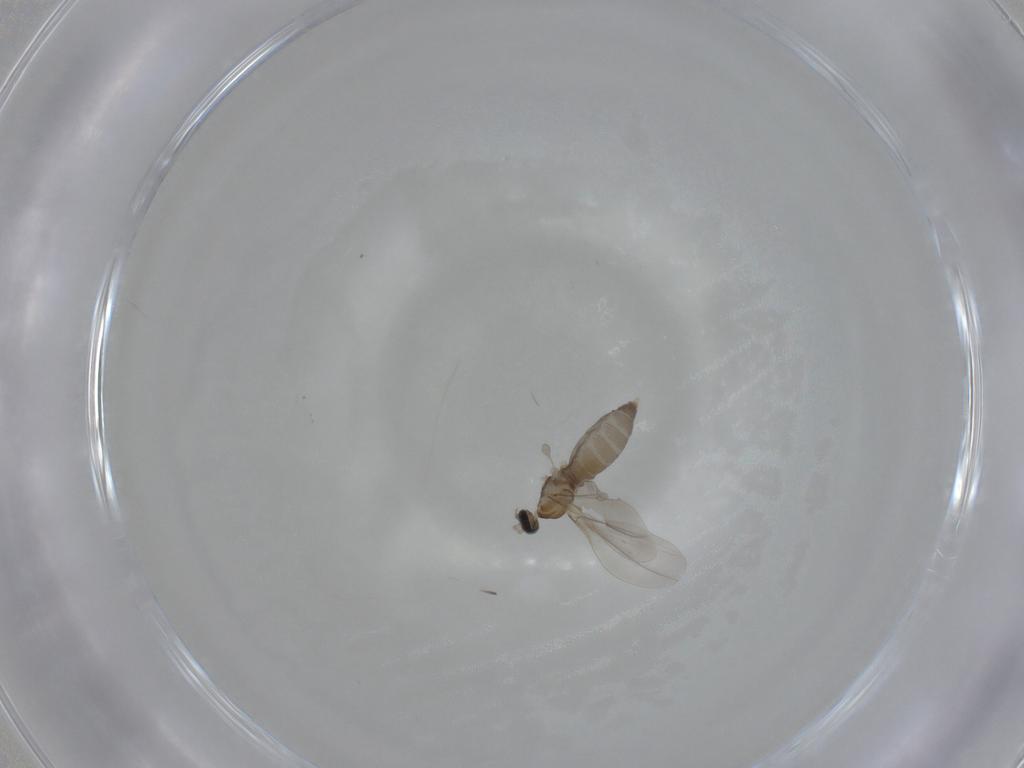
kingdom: Animalia
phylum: Arthropoda
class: Insecta
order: Diptera
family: Cecidomyiidae
